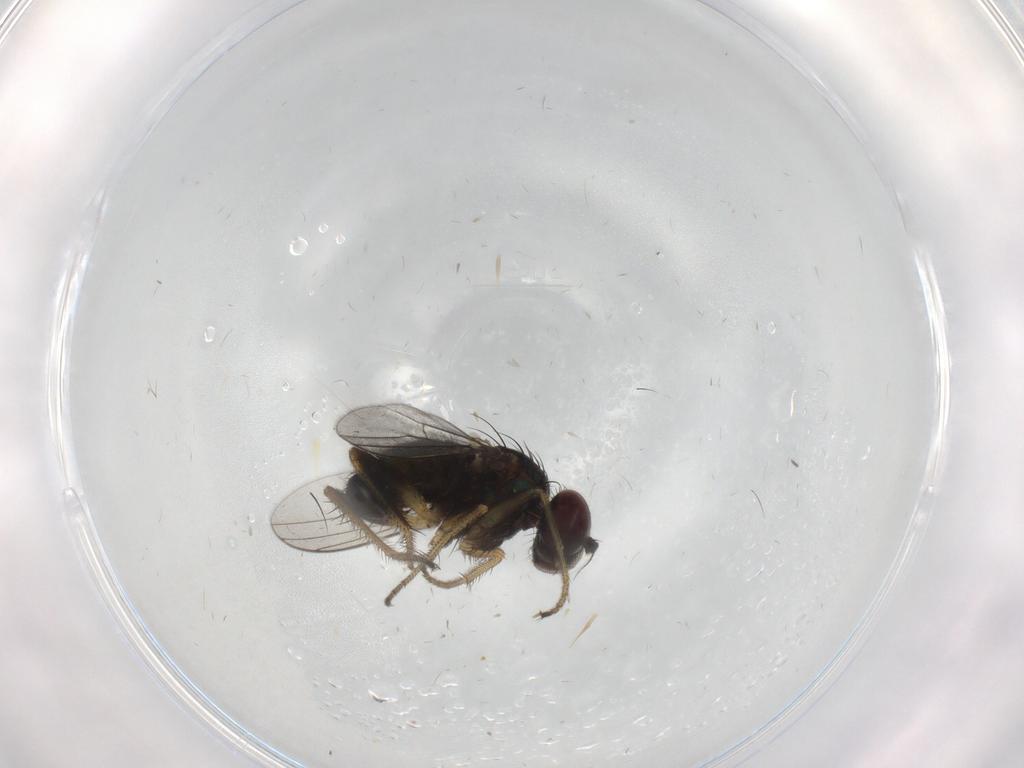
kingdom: Animalia
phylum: Arthropoda
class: Insecta
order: Diptera
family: Dolichopodidae
